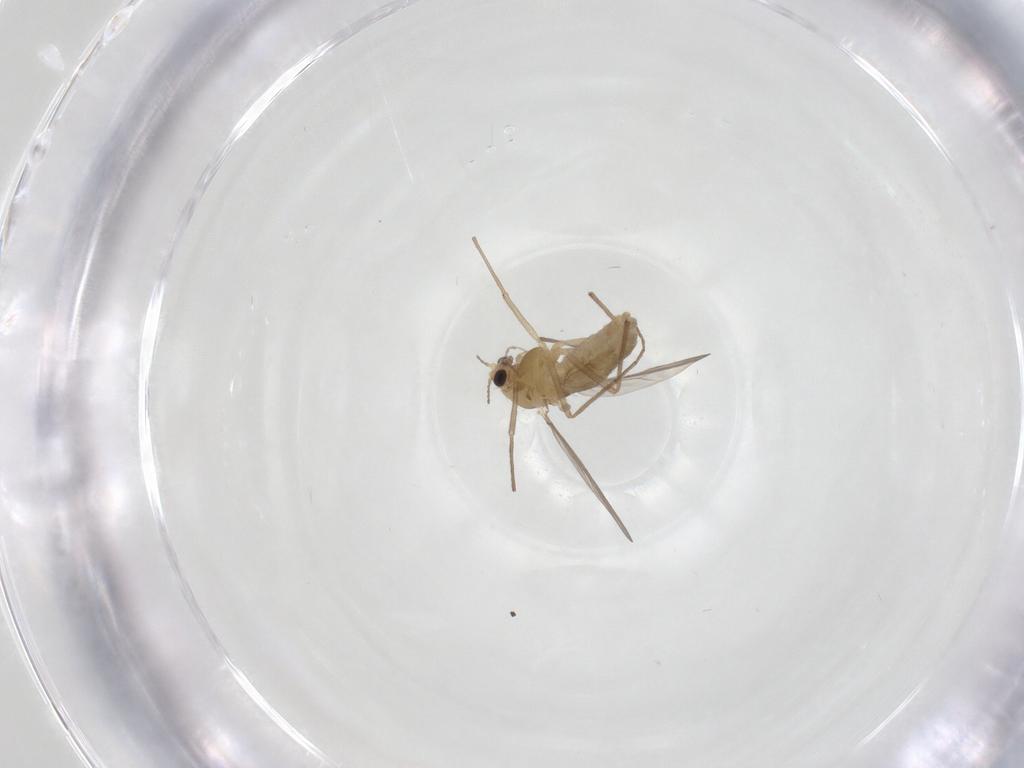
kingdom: Animalia
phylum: Arthropoda
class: Insecta
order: Diptera
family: Chironomidae
